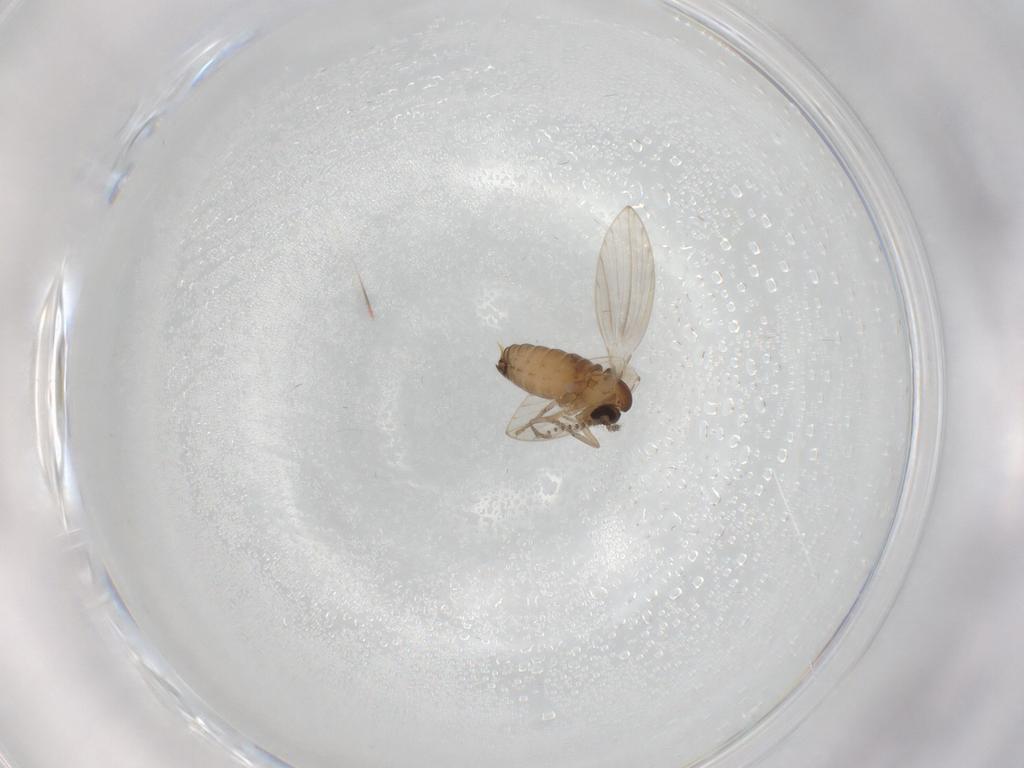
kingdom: Animalia
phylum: Arthropoda
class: Insecta
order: Diptera
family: Psychodidae
